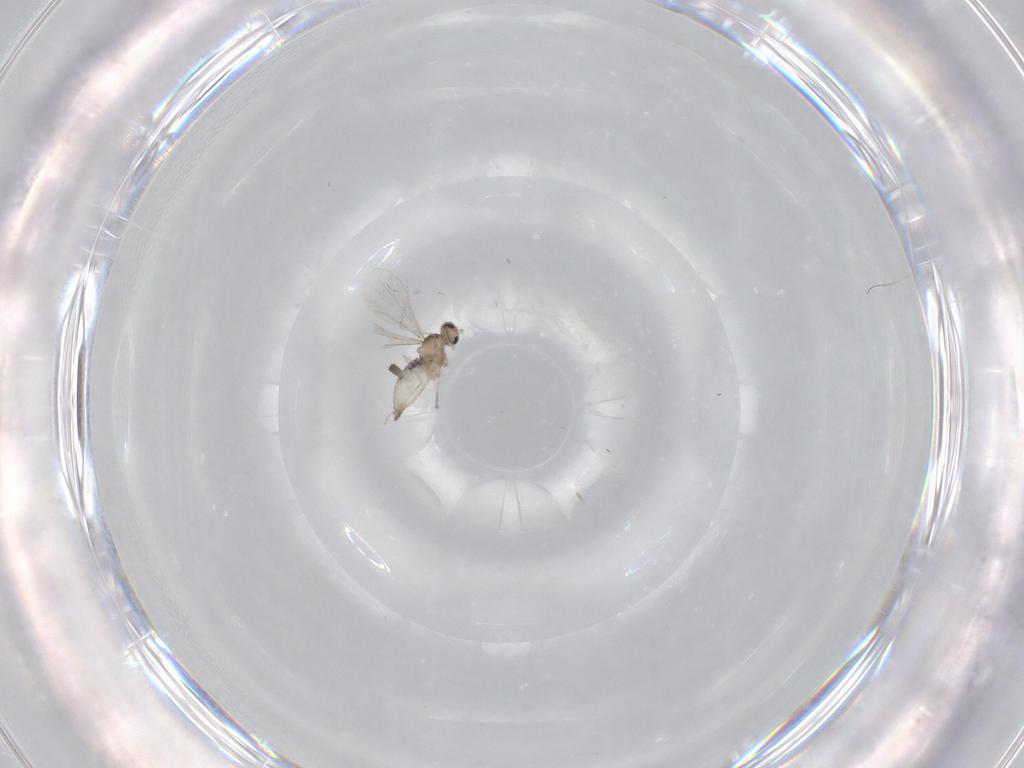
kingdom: Animalia
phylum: Arthropoda
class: Insecta
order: Diptera
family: Cecidomyiidae
